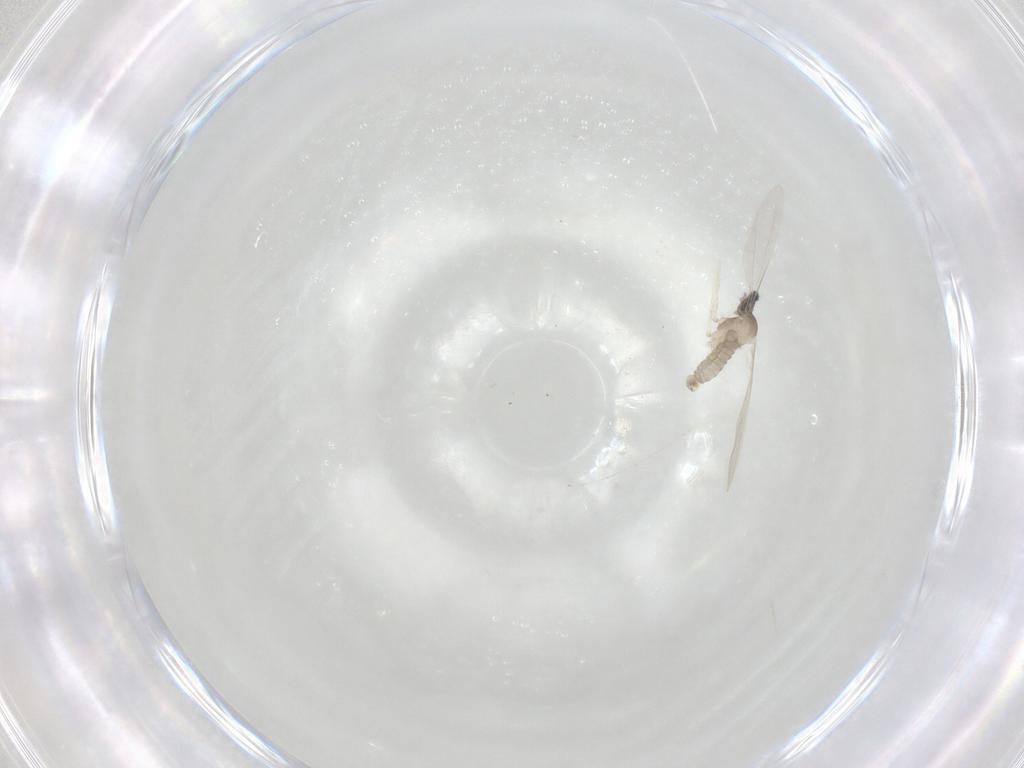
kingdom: Animalia
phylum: Arthropoda
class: Insecta
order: Diptera
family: Cecidomyiidae
